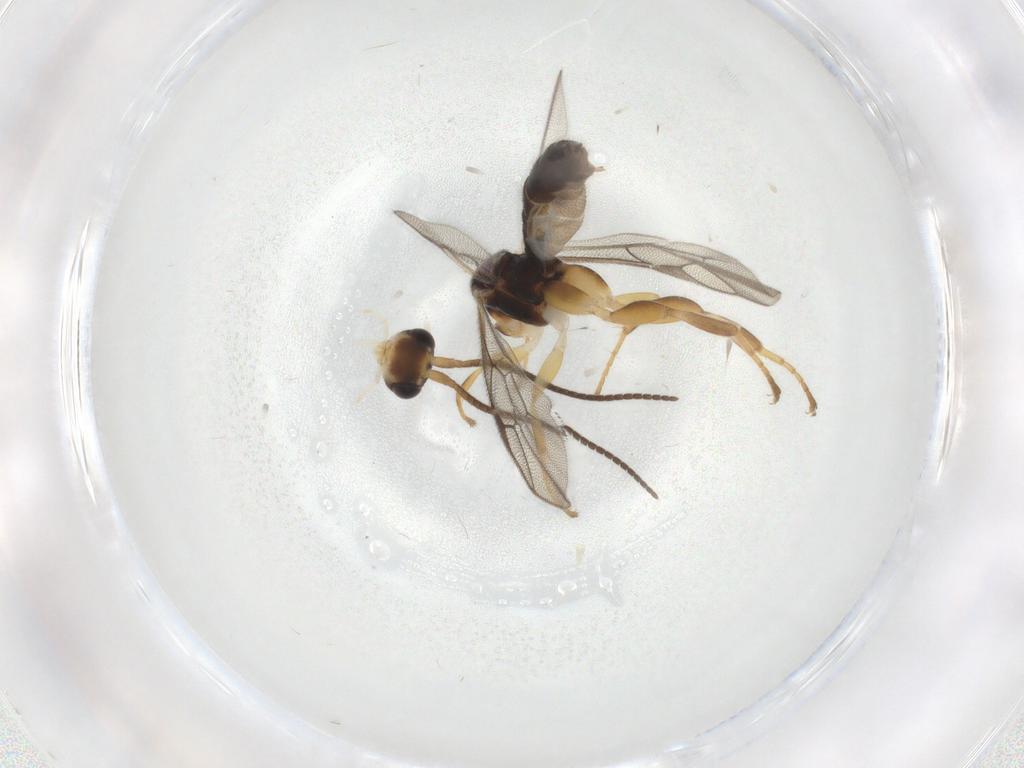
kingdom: Animalia
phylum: Arthropoda
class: Insecta
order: Hymenoptera
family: Ichneumonidae
